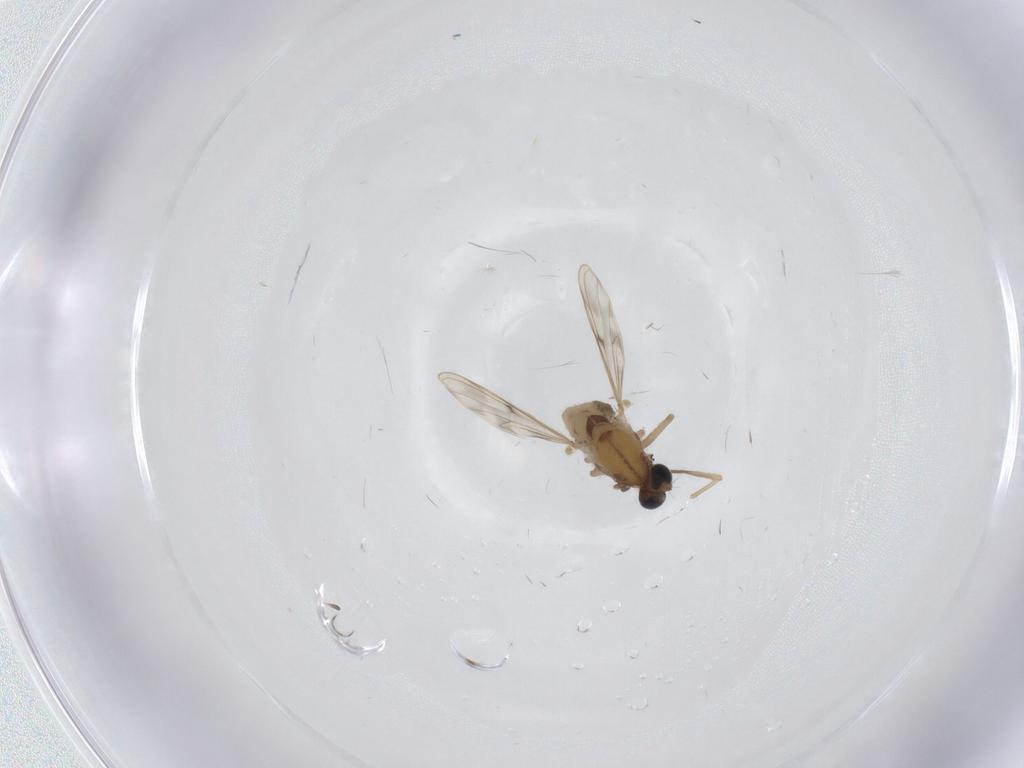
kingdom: Animalia
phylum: Arthropoda
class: Insecta
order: Diptera
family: Chironomidae
